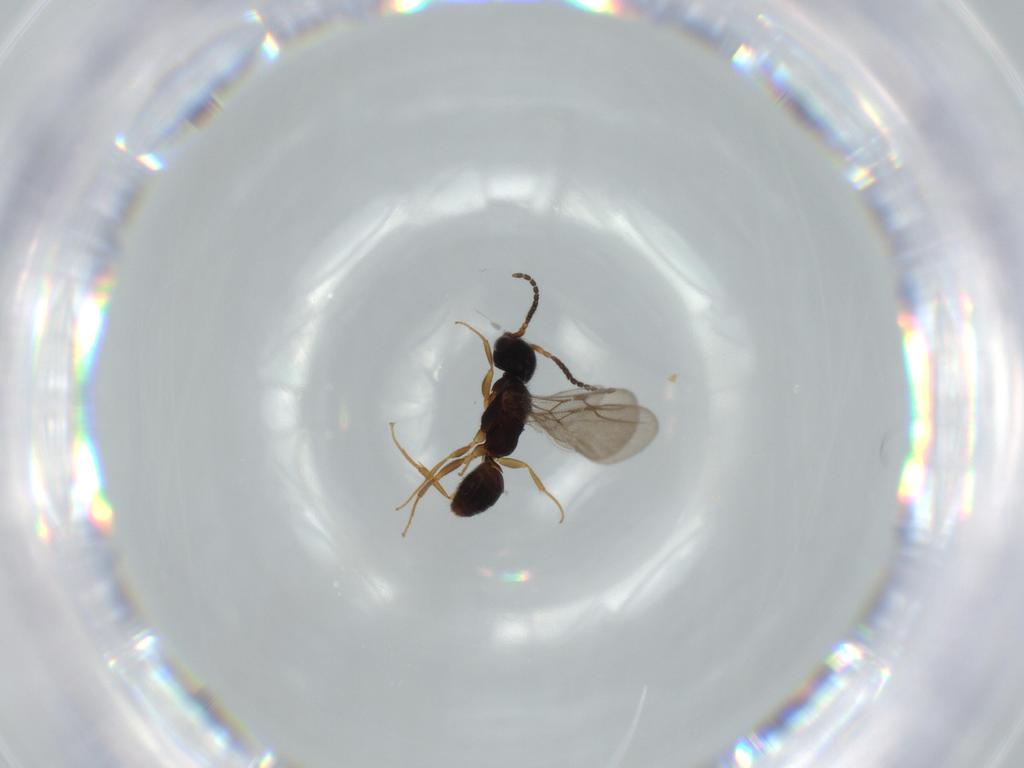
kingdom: Animalia
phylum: Arthropoda
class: Insecta
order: Hymenoptera
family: Bethylidae
